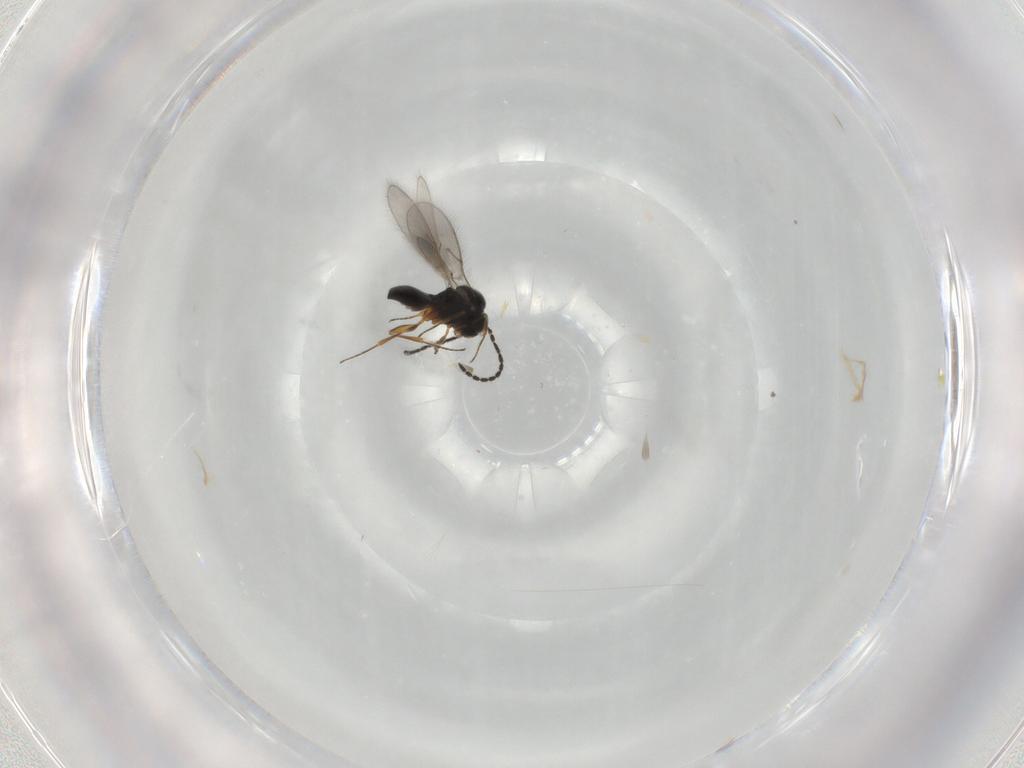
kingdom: Animalia
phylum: Arthropoda
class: Insecta
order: Hymenoptera
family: Scelionidae
